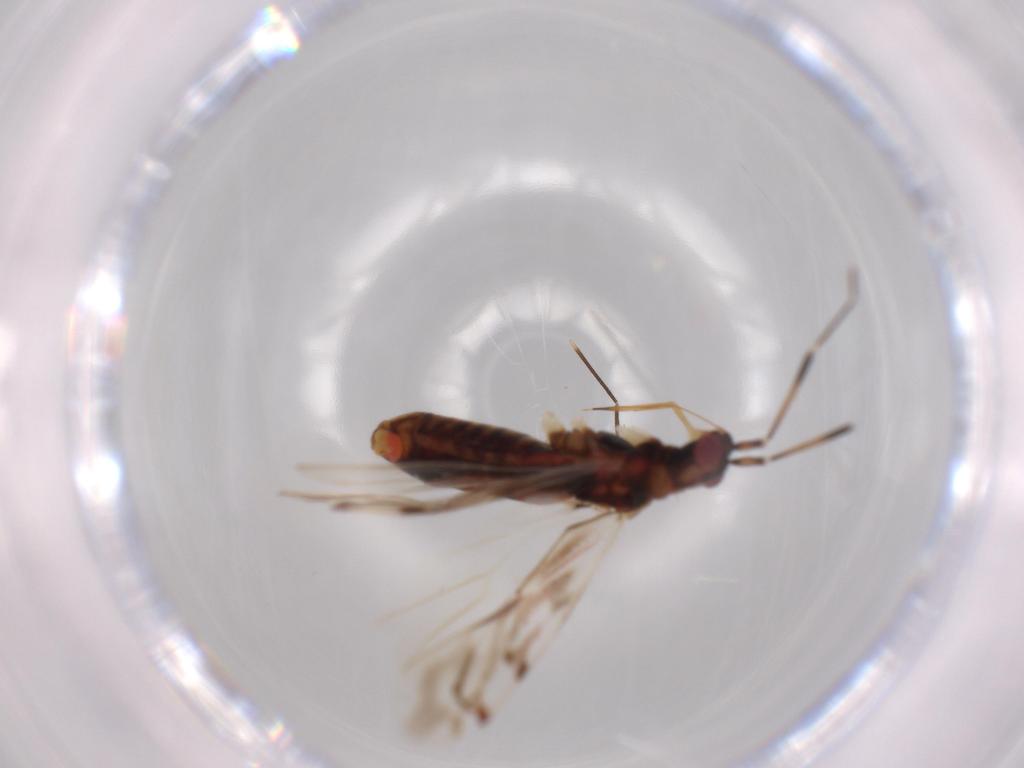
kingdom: Animalia
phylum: Arthropoda
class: Insecta
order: Hemiptera
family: Miridae
